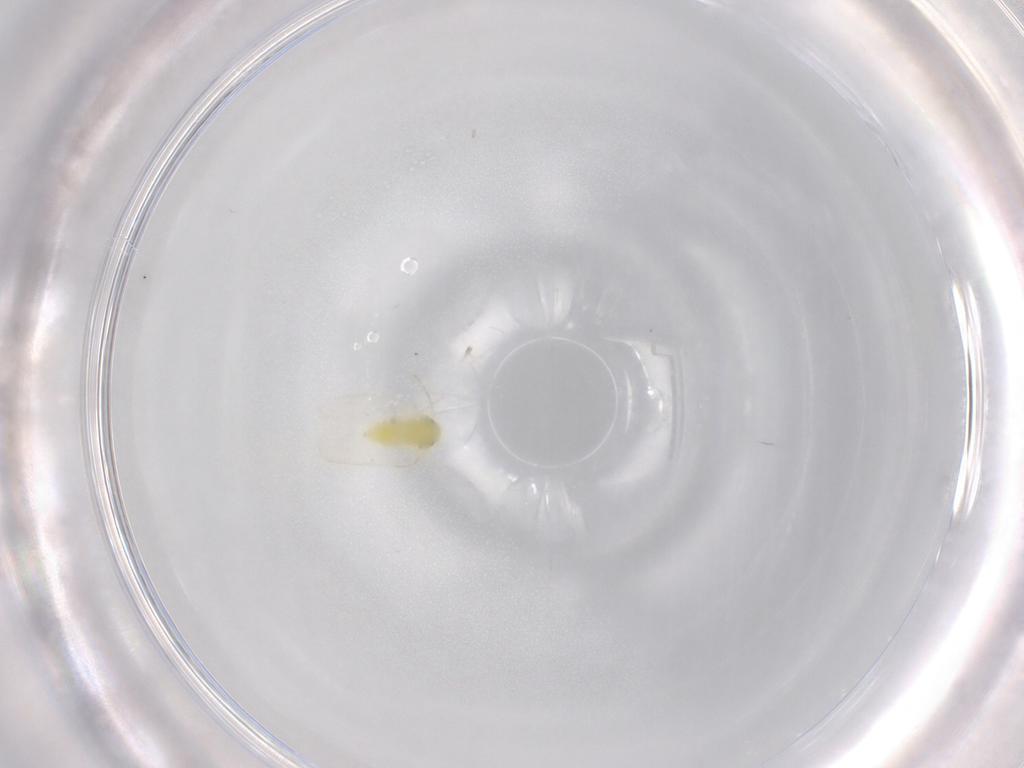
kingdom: Animalia
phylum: Arthropoda
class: Insecta
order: Hemiptera
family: Aleyrodidae
